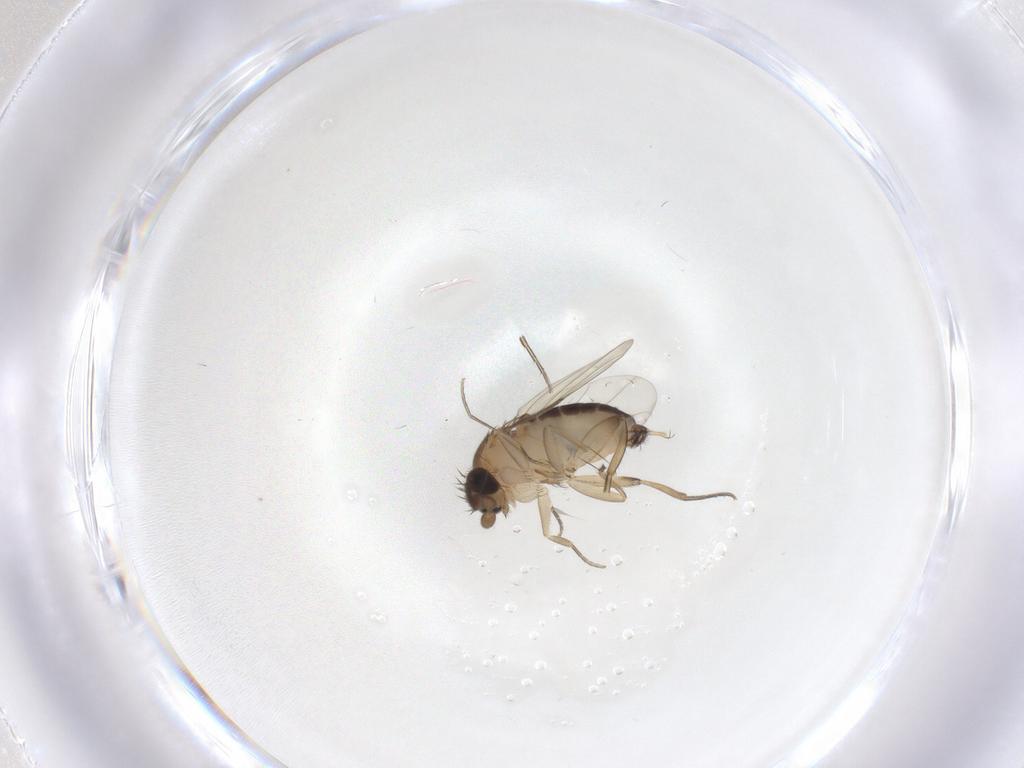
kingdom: Animalia
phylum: Arthropoda
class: Insecta
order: Diptera
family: Phoridae
